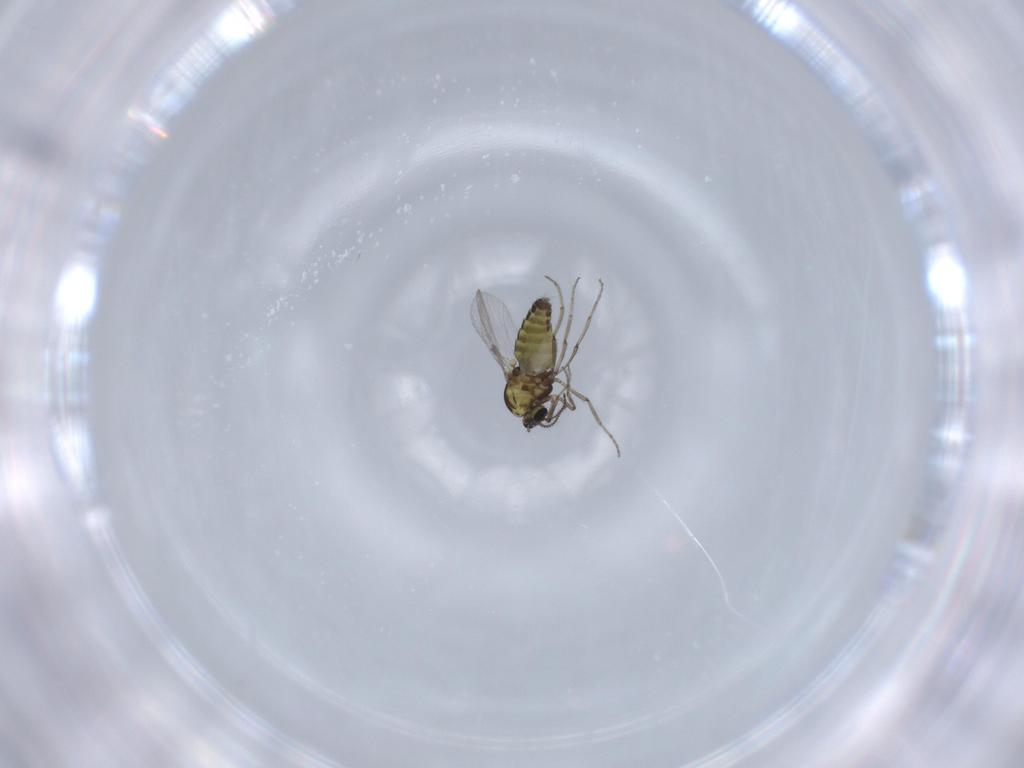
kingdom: Animalia
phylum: Arthropoda
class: Insecta
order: Diptera
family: Ceratopogonidae
